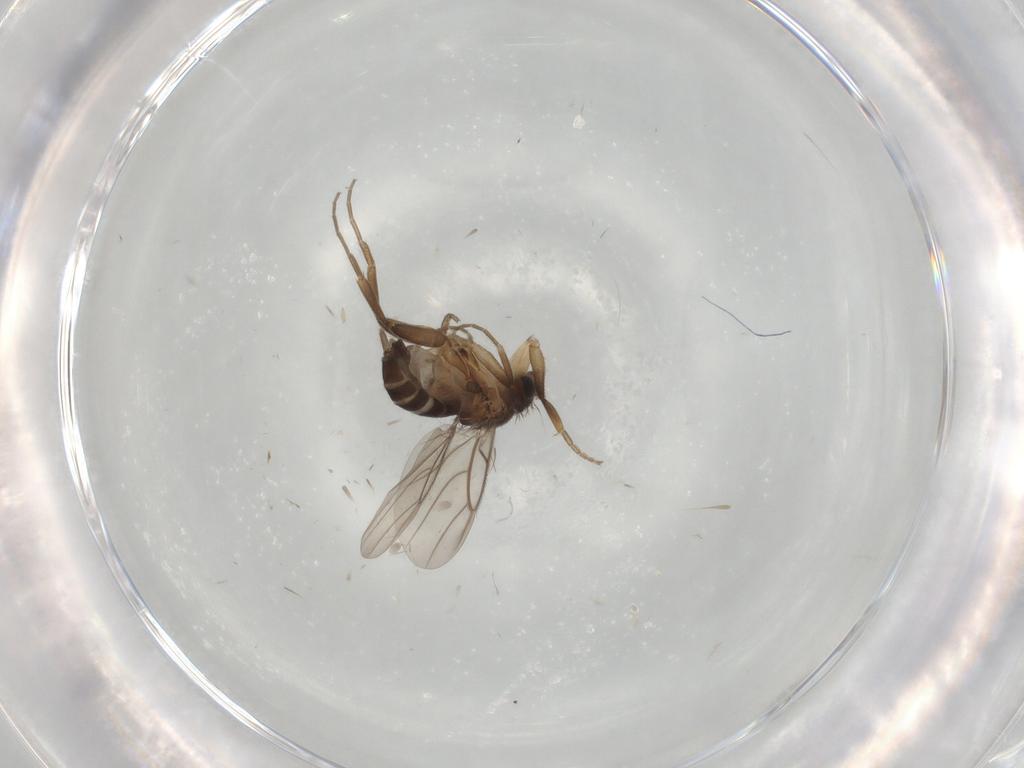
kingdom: Animalia
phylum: Arthropoda
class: Insecta
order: Diptera
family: Phoridae
